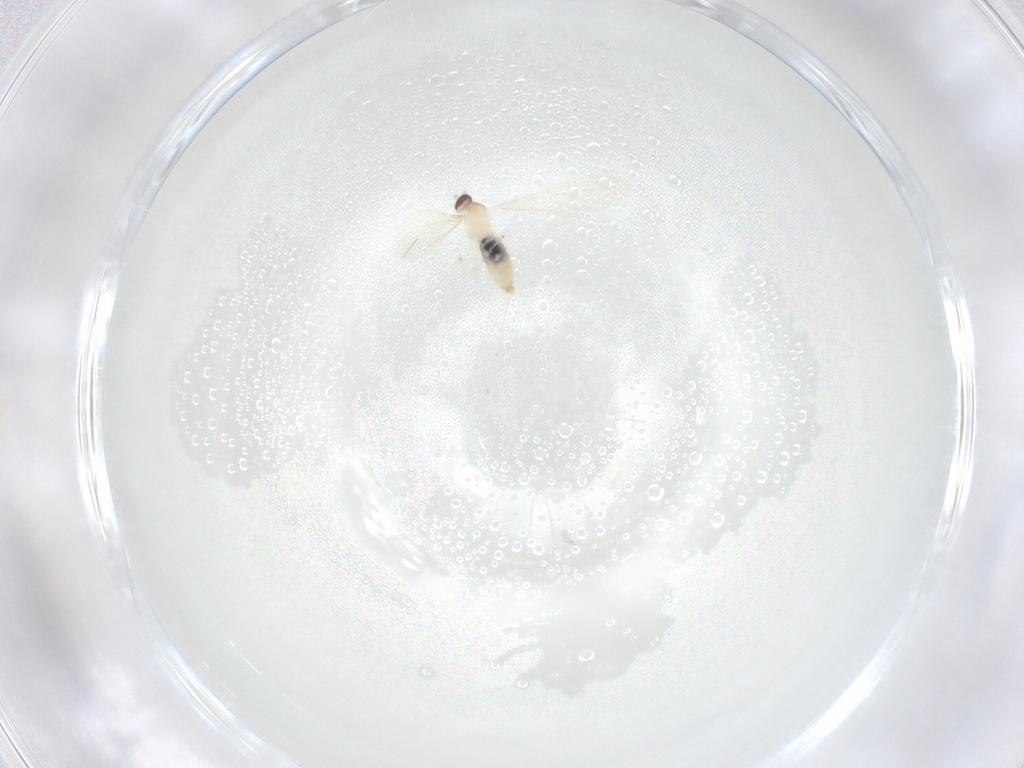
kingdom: Animalia
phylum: Arthropoda
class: Insecta
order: Diptera
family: Cecidomyiidae
